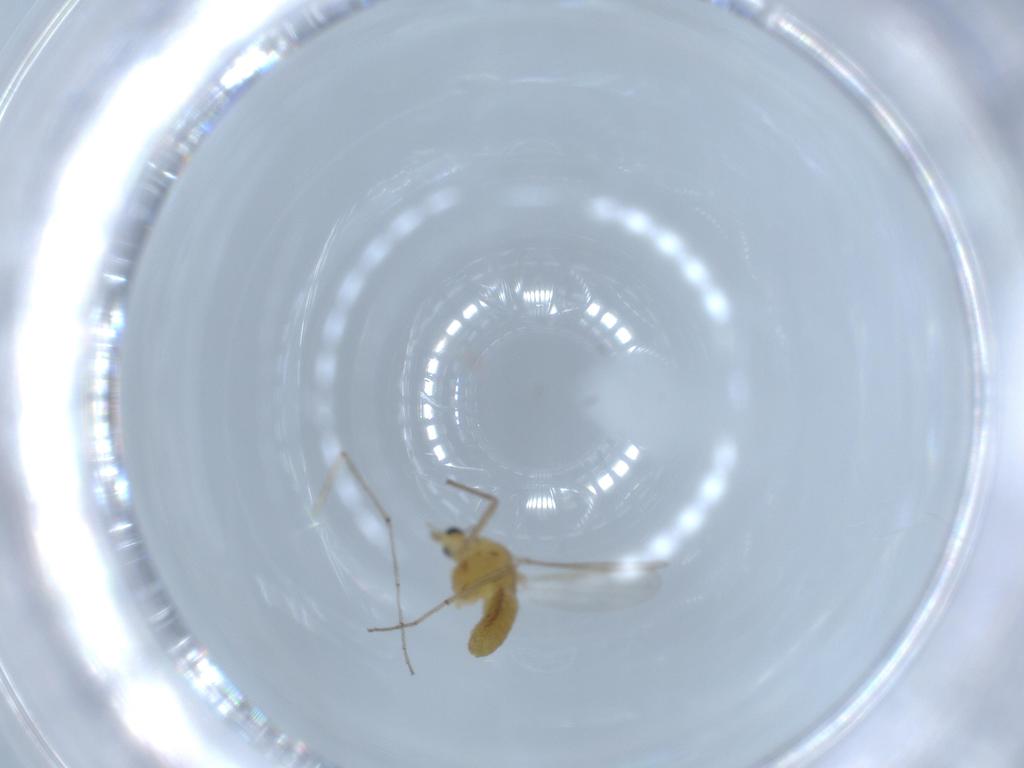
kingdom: Animalia
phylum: Arthropoda
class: Insecta
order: Diptera
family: Chironomidae
